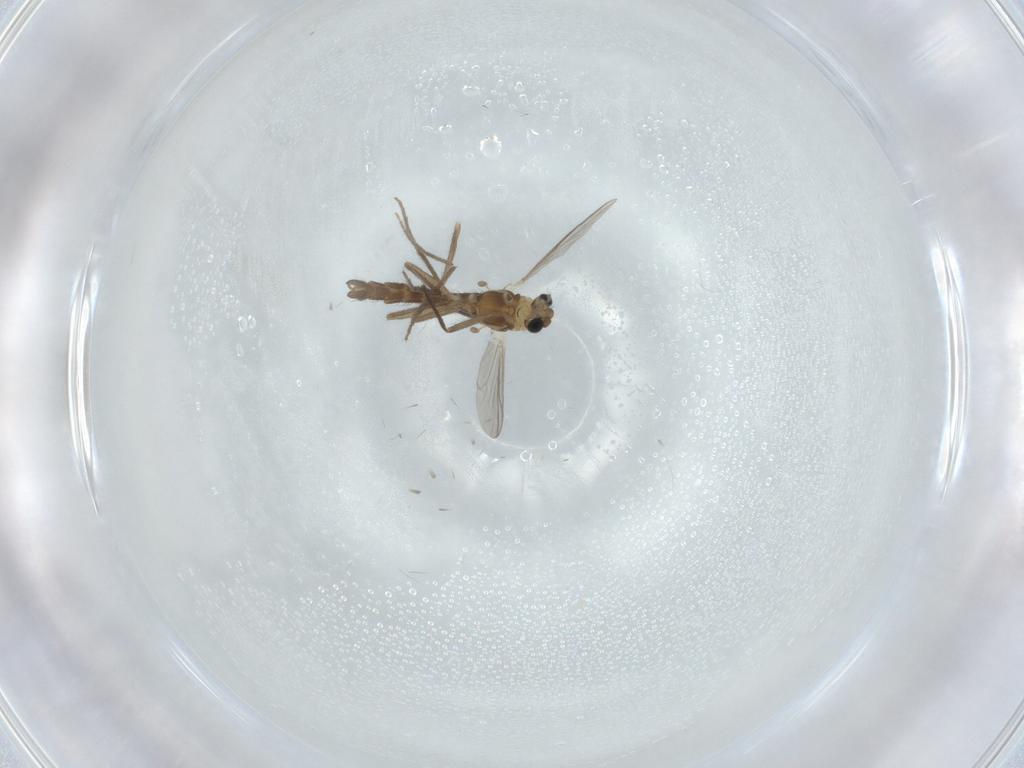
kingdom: Animalia
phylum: Arthropoda
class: Insecta
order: Diptera
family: Chironomidae
